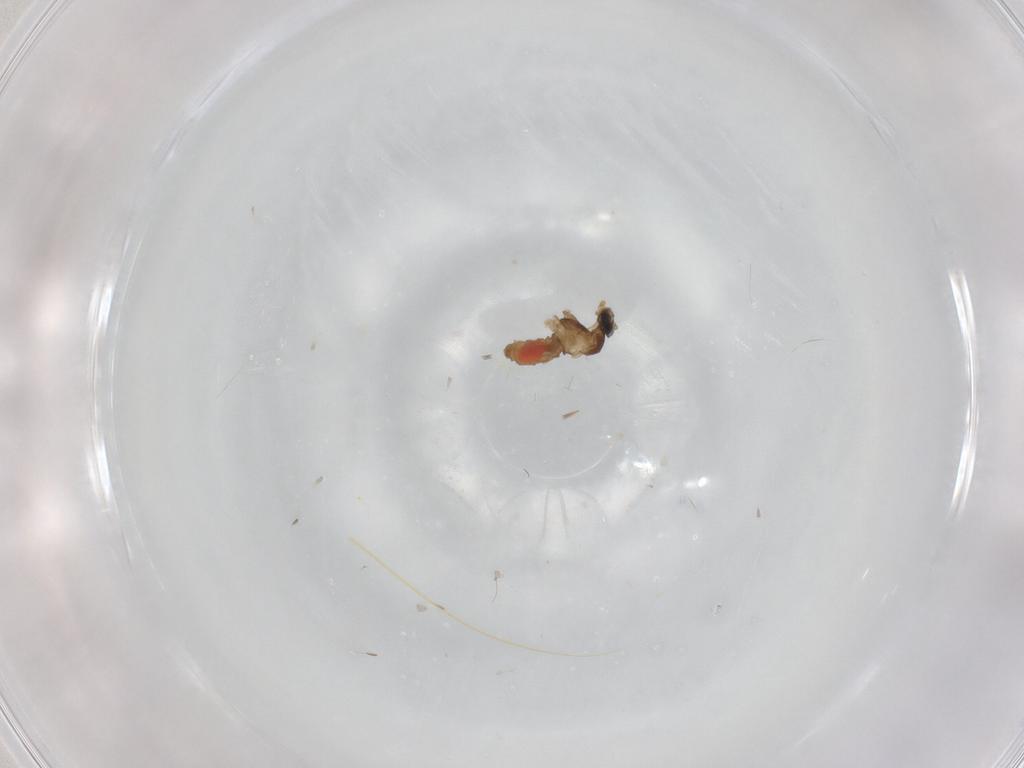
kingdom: Animalia
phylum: Arthropoda
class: Insecta
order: Diptera
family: Cecidomyiidae
